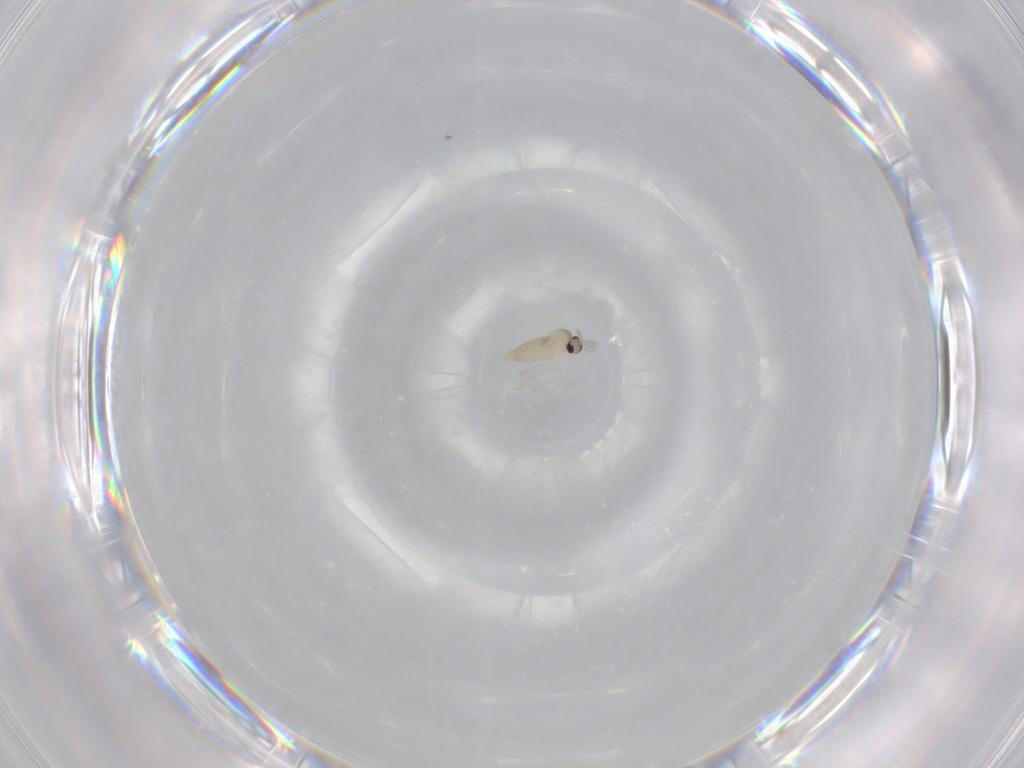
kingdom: Animalia
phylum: Arthropoda
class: Insecta
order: Diptera
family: Cecidomyiidae
